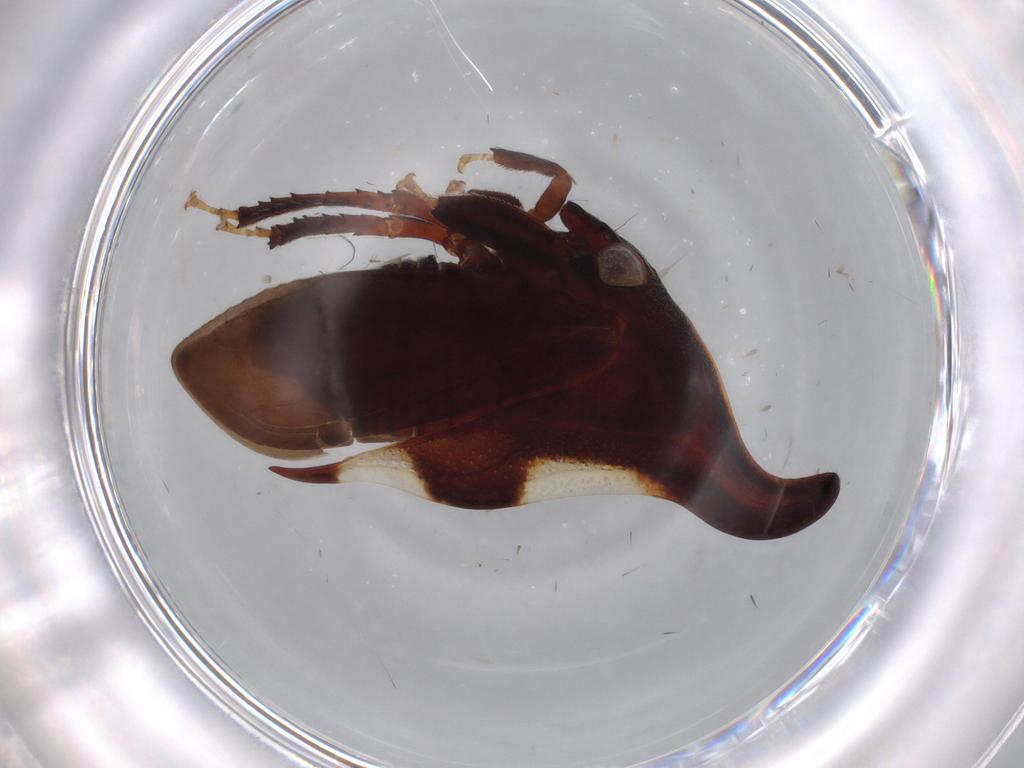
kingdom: Animalia
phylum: Arthropoda
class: Insecta
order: Hemiptera
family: Membracidae
